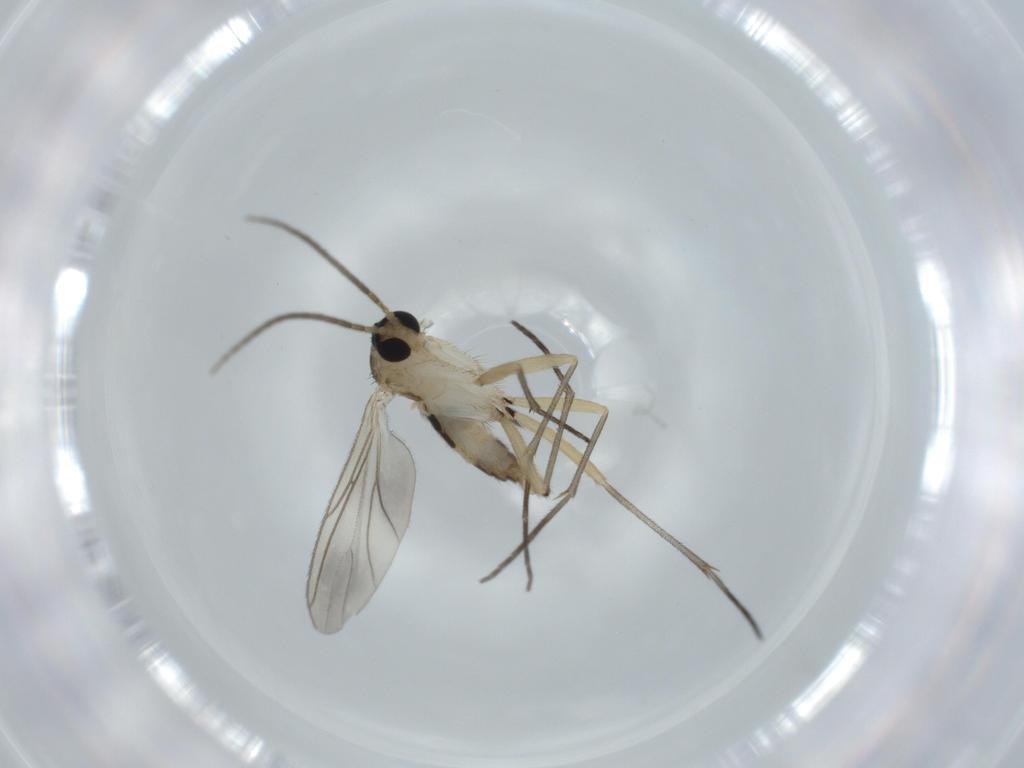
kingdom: Animalia
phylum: Arthropoda
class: Insecta
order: Diptera
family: Sciaridae
